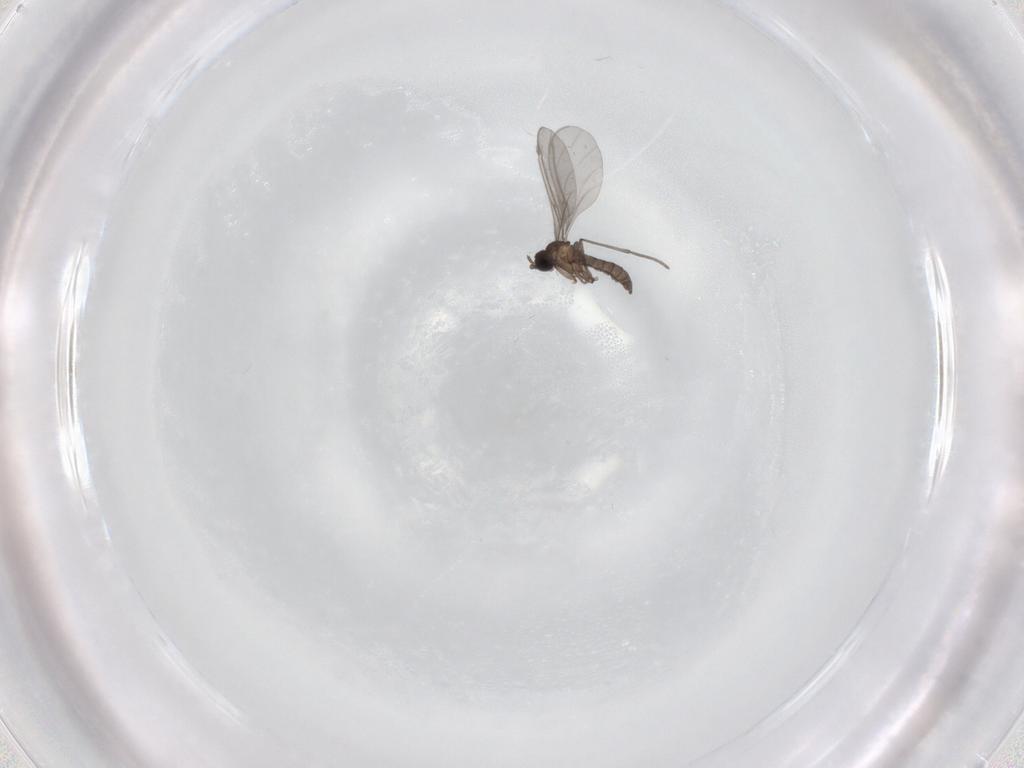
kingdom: Animalia
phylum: Arthropoda
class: Insecta
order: Diptera
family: Sciaridae
